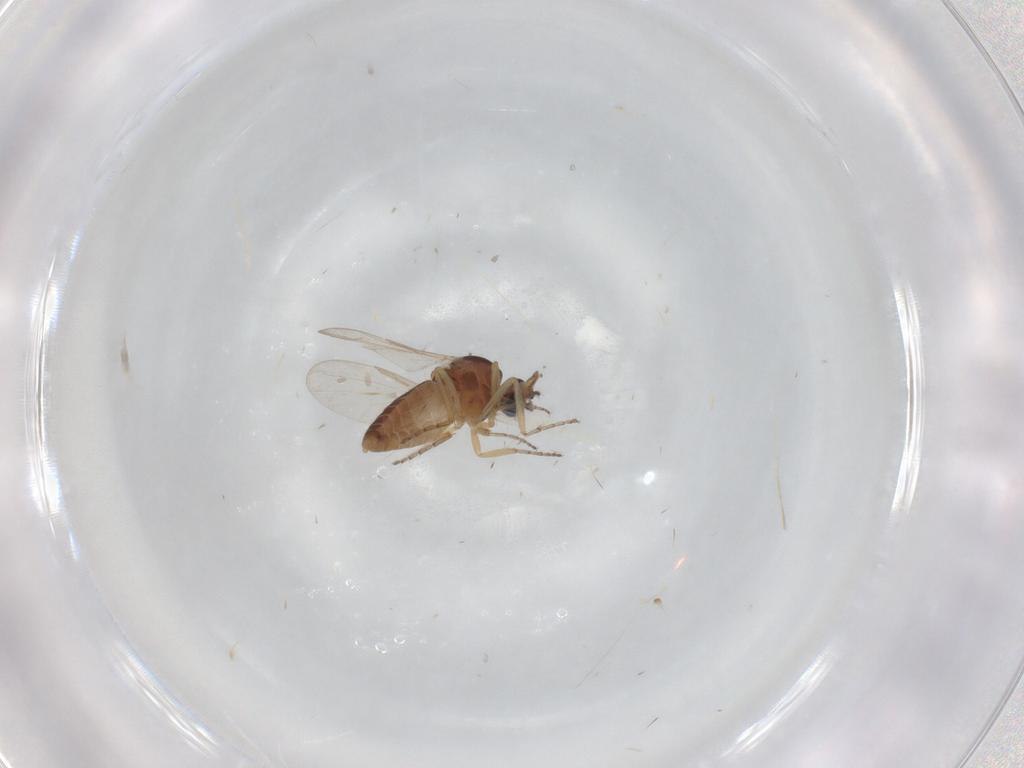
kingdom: Animalia
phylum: Arthropoda
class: Insecta
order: Diptera
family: Ceratopogonidae
